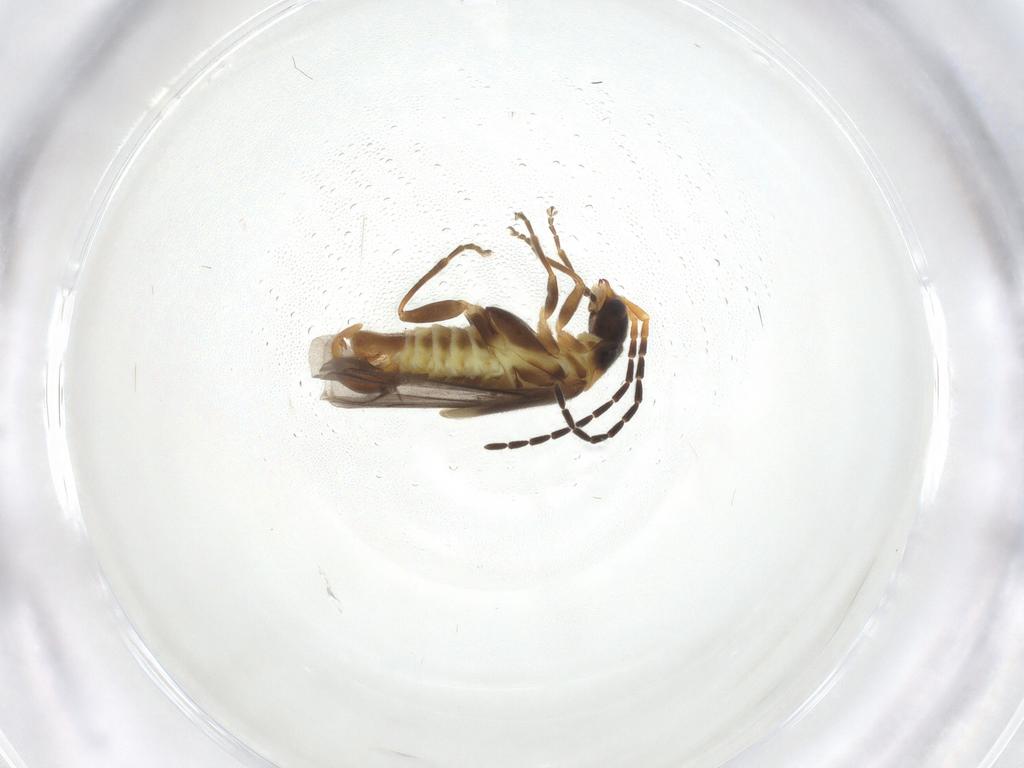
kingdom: Animalia
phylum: Arthropoda
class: Insecta
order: Coleoptera
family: Cantharidae
